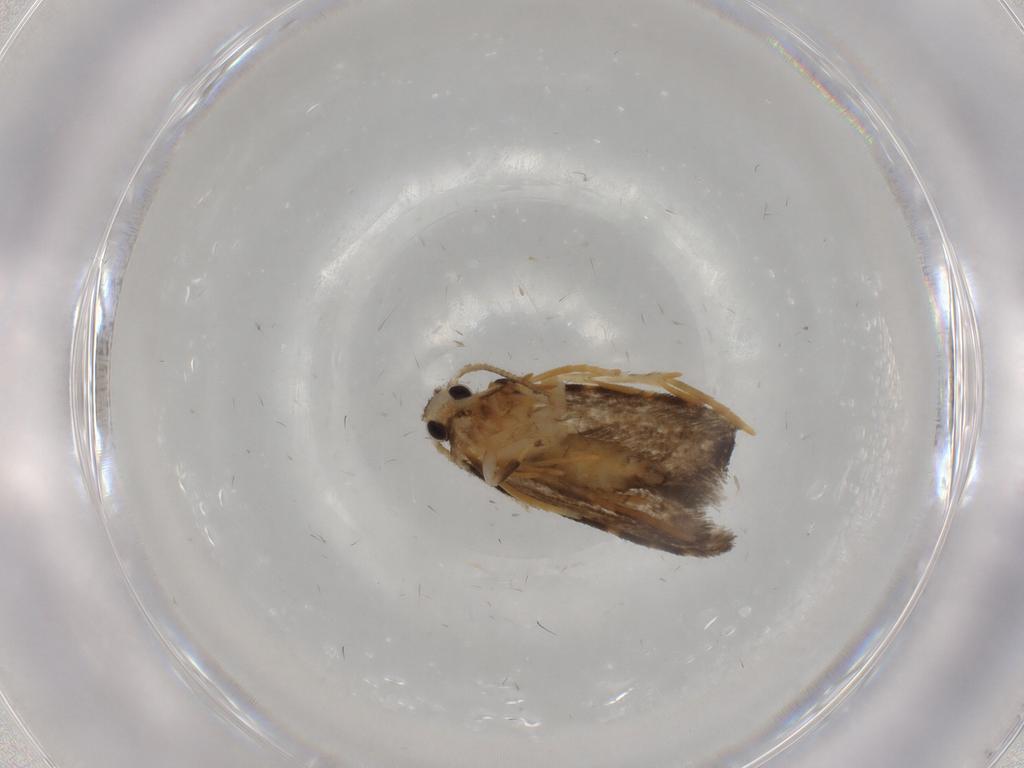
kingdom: Animalia
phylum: Arthropoda
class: Insecta
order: Lepidoptera
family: Psychidae
